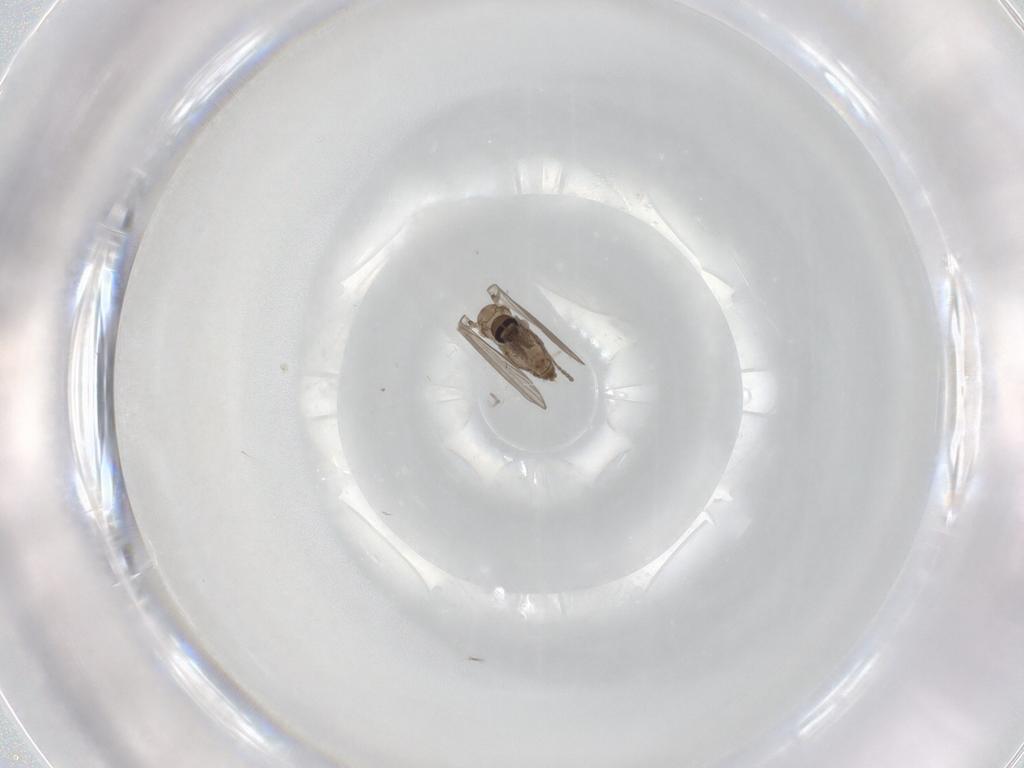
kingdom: Animalia
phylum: Arthropoda
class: Insecta
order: Diptera
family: Psychodidae
